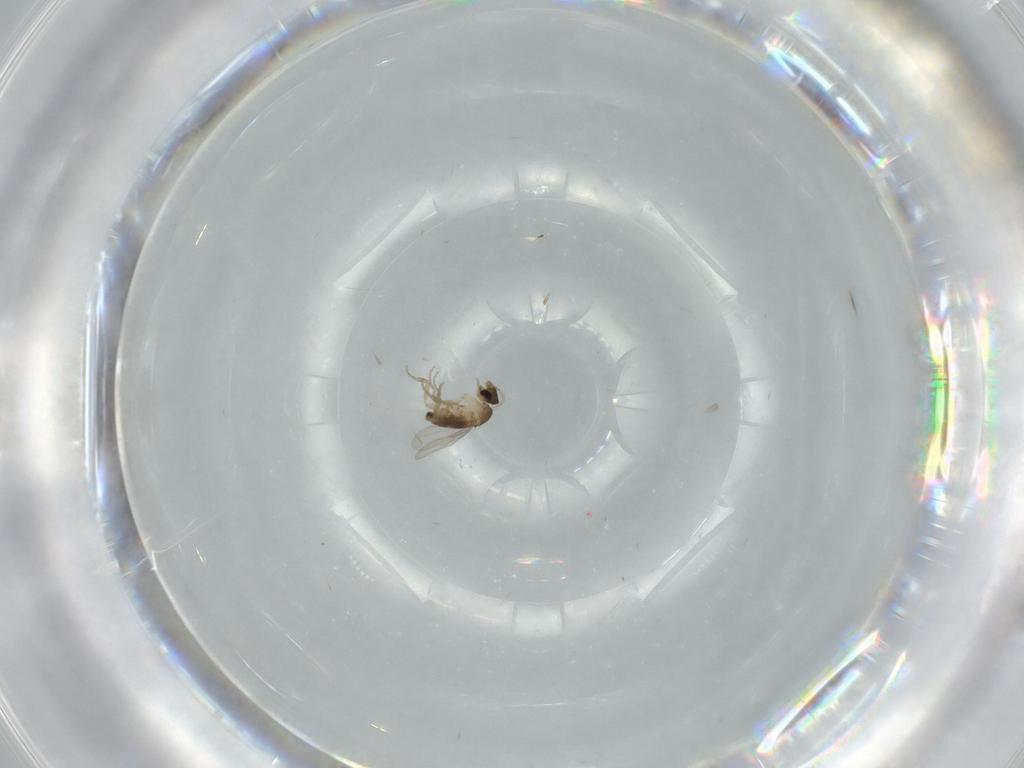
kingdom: Animalia
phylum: Arthropoda
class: Insecta
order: Diptera
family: Phoridae
